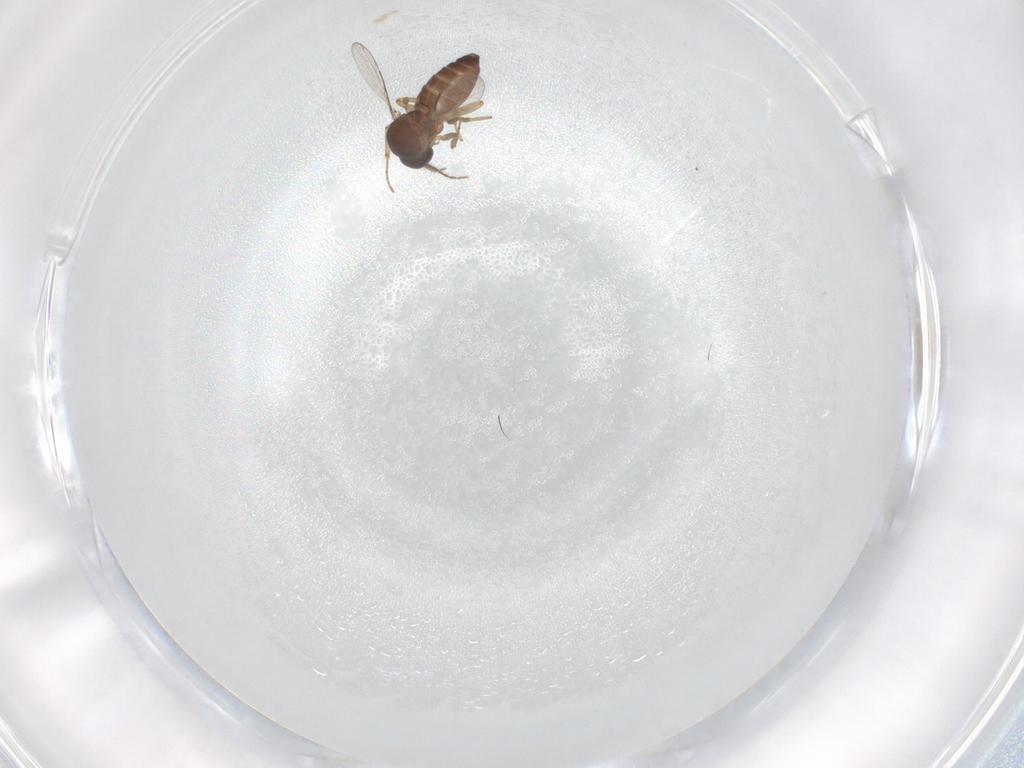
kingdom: Animalia
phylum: Arthropoda
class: Insecta
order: Diptera
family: Ceratopogonidae
